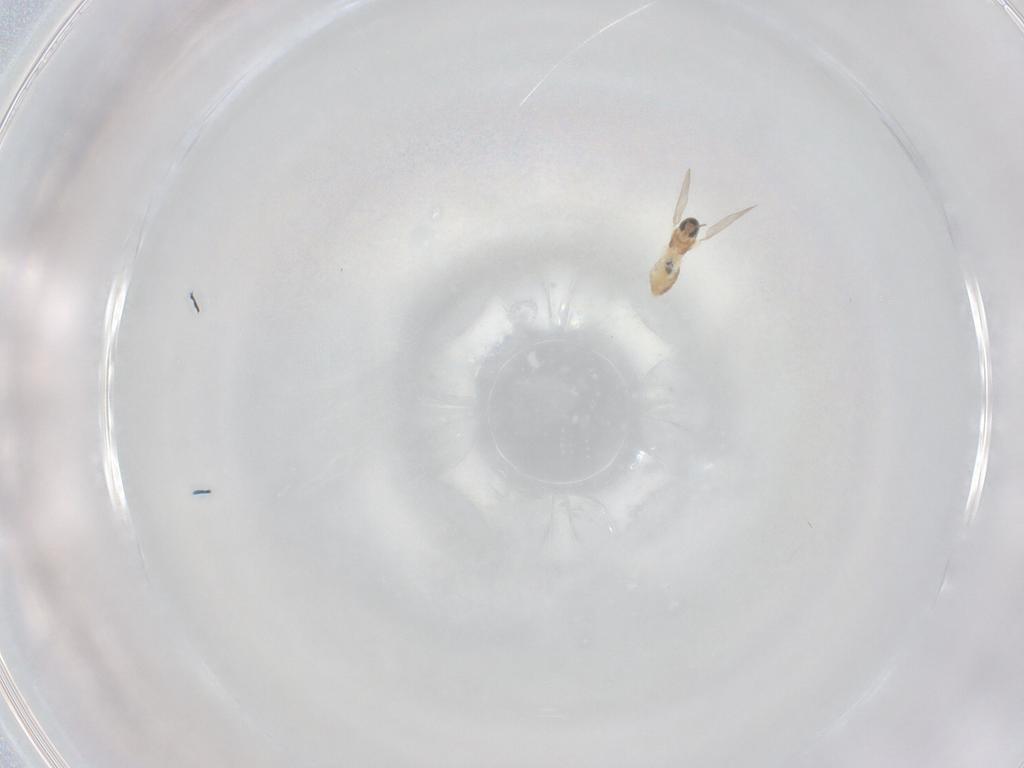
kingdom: Animalia
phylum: Arthropoda
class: Insecta
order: Diptera
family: Cecidomyiidae
